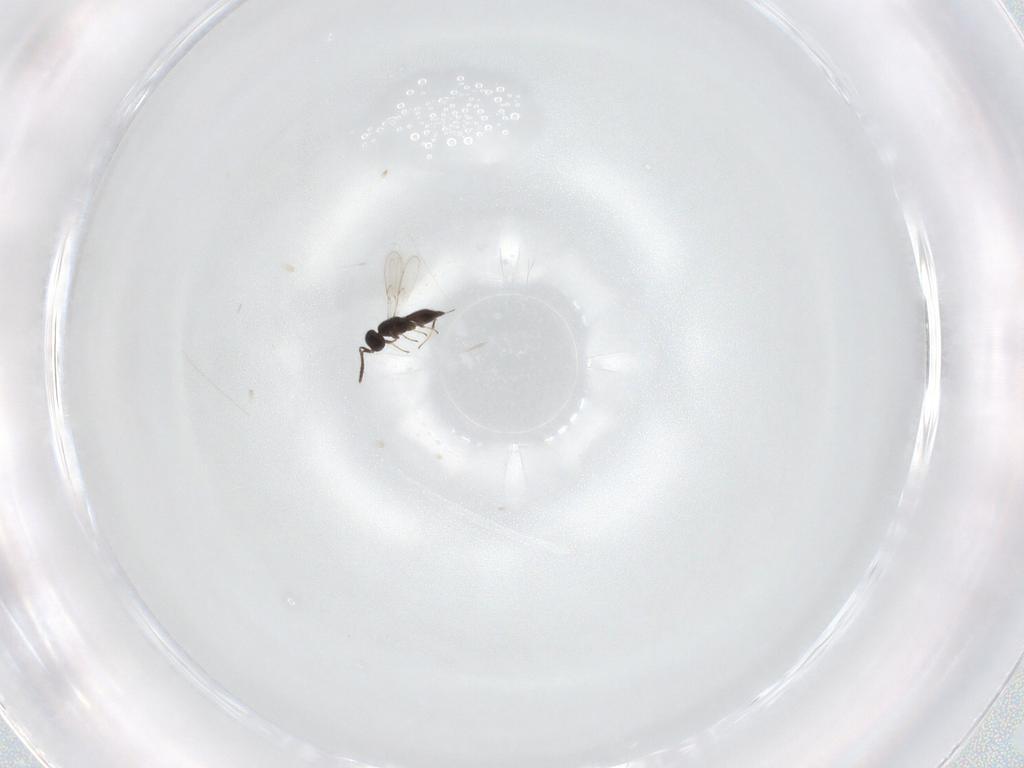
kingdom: Animalia
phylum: Arthropoda
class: Insecta
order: Hymenoptera
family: Scelionidae
